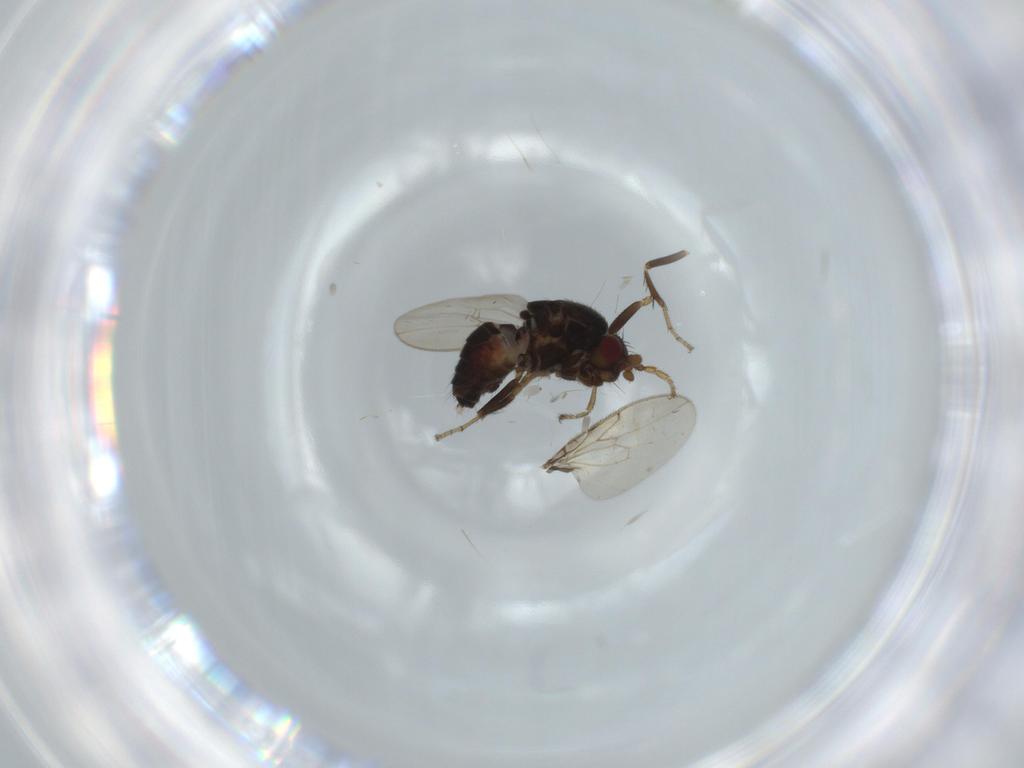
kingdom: Animalia
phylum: Arthropoda
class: Insecta
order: Diptera
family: Sphaeroceridae
